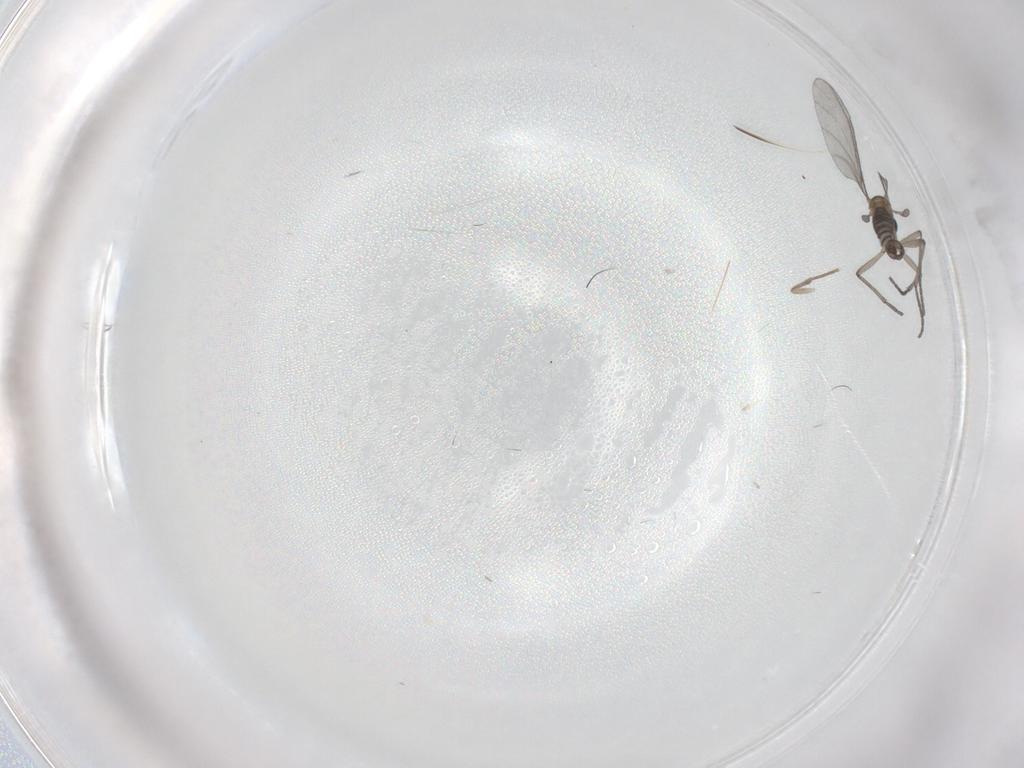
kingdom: Animalia
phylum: Arthropoda
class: Insecta
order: Diptera
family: Sciaridae
